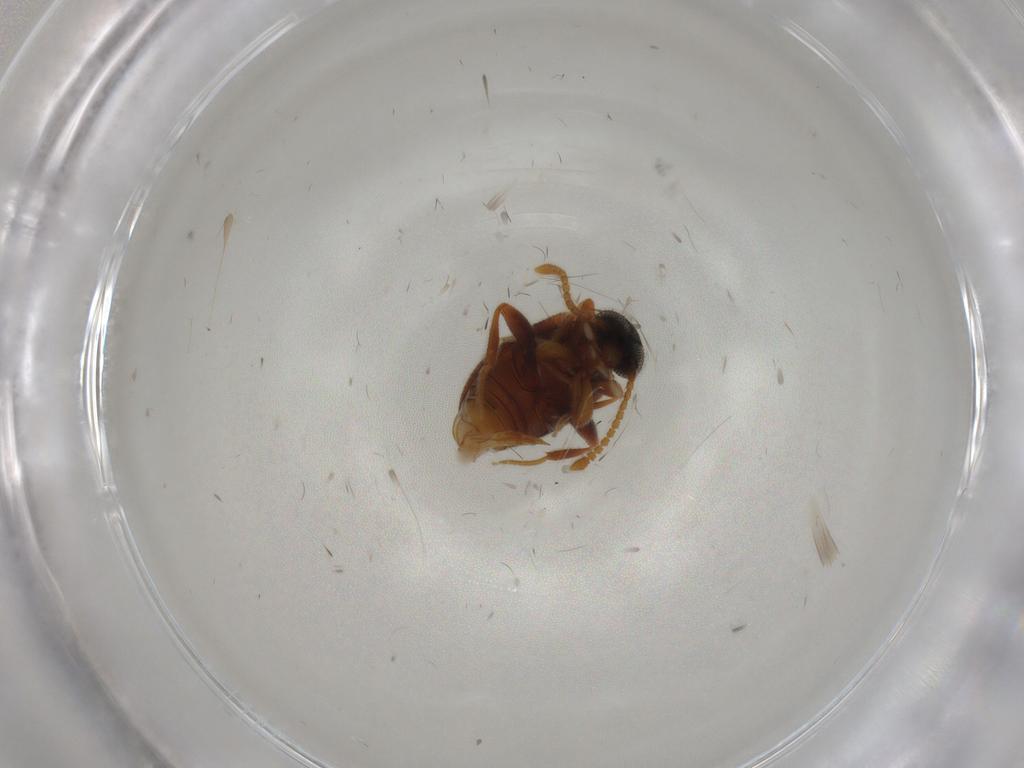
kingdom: Animalia
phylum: Arthropoda
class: Insecta
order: Coleoptera
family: Aderidae
